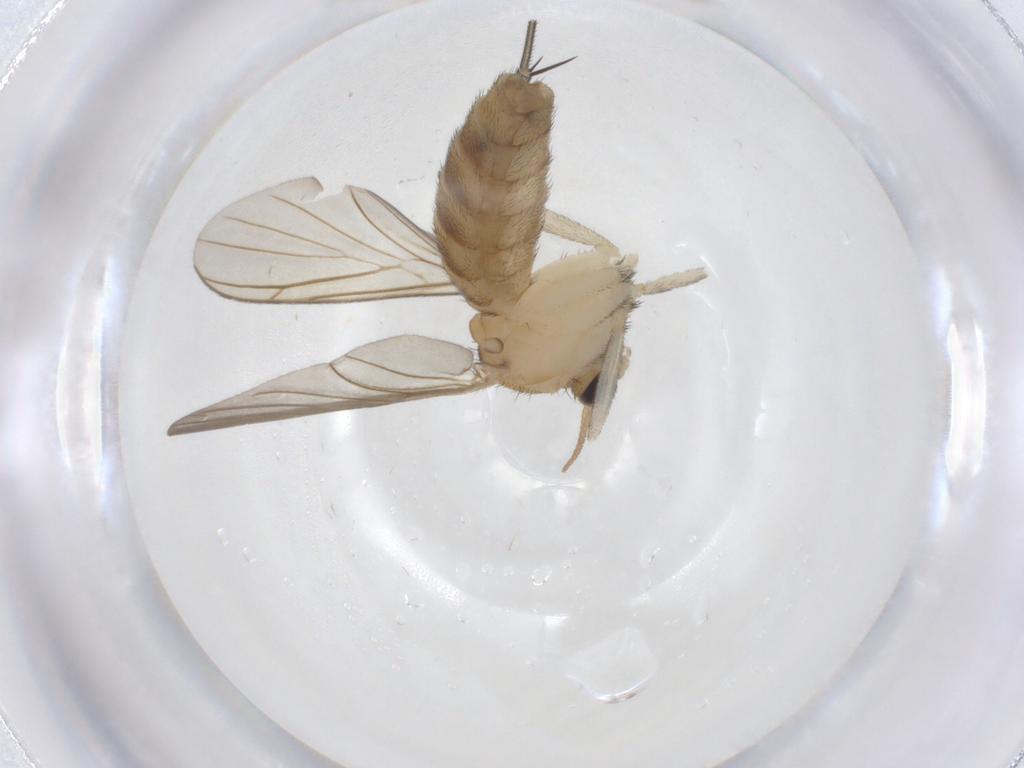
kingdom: Animalia
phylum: Arthropoda
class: Insecta
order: Diptera
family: Keroplatidae
